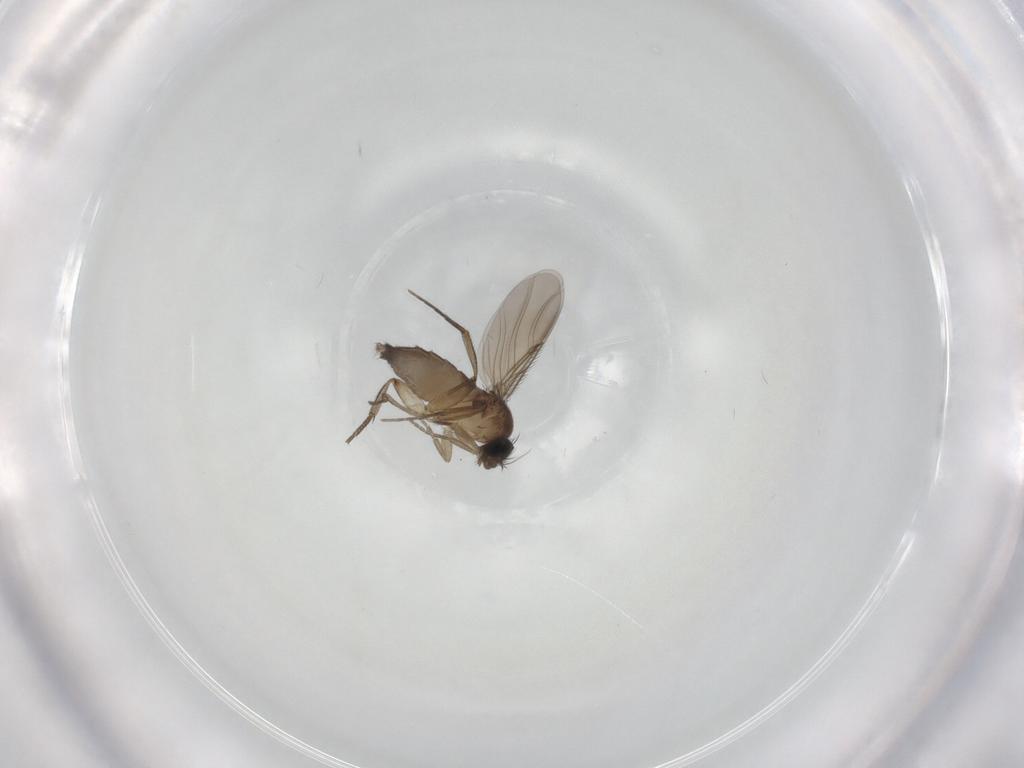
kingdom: Animalia
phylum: Arthropoda
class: Insecta
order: Diptera
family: Phoridae
